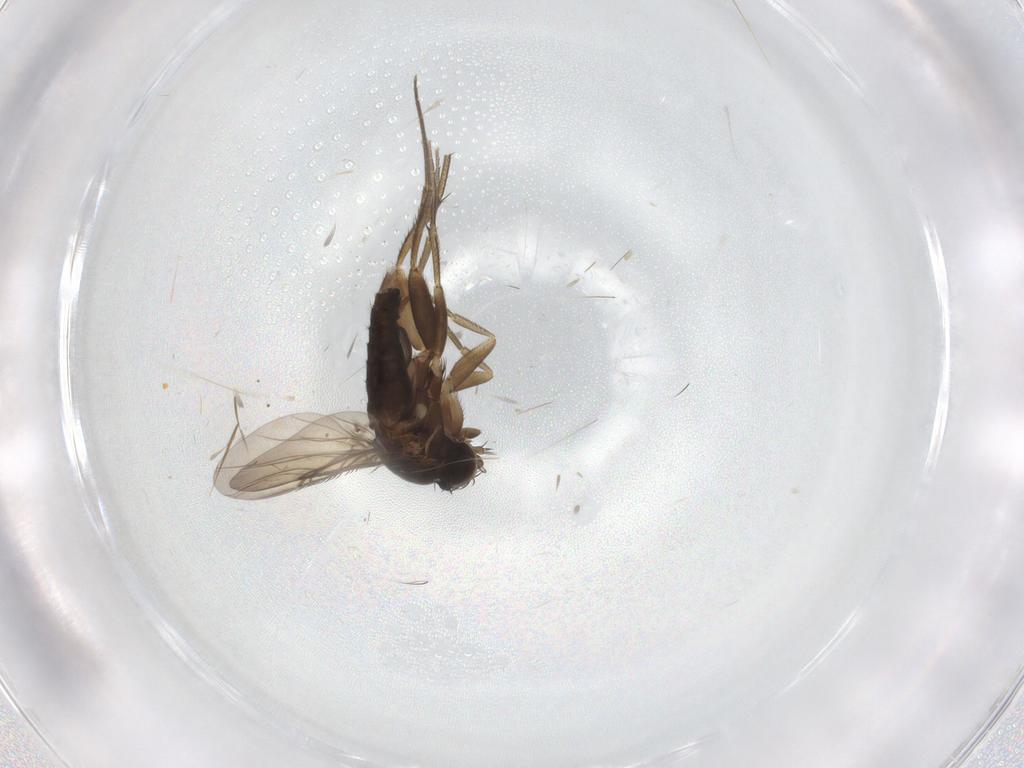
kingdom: Animalia
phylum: Arthropoda
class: Insecta
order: Diptera
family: Phoridae
